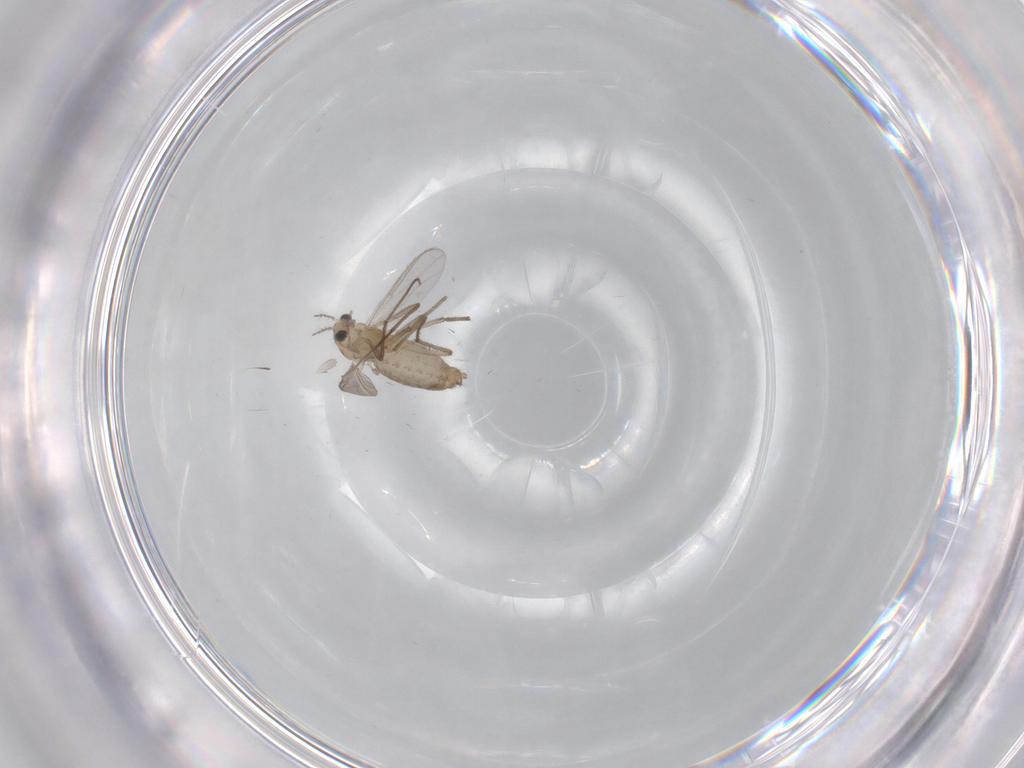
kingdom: Animalia
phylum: Arthropoda
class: Insecta
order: Diptera
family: Chironomidae
